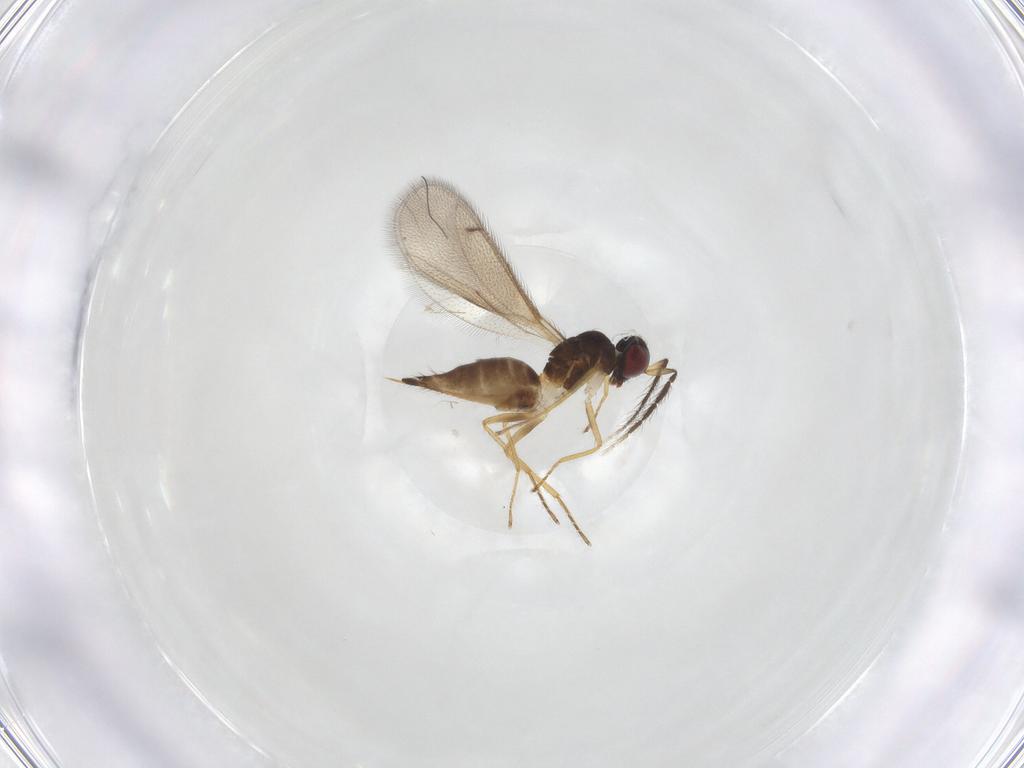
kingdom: Animalia
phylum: Arthropoda
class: Insecta
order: Hymenoptera
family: Eulophidae
